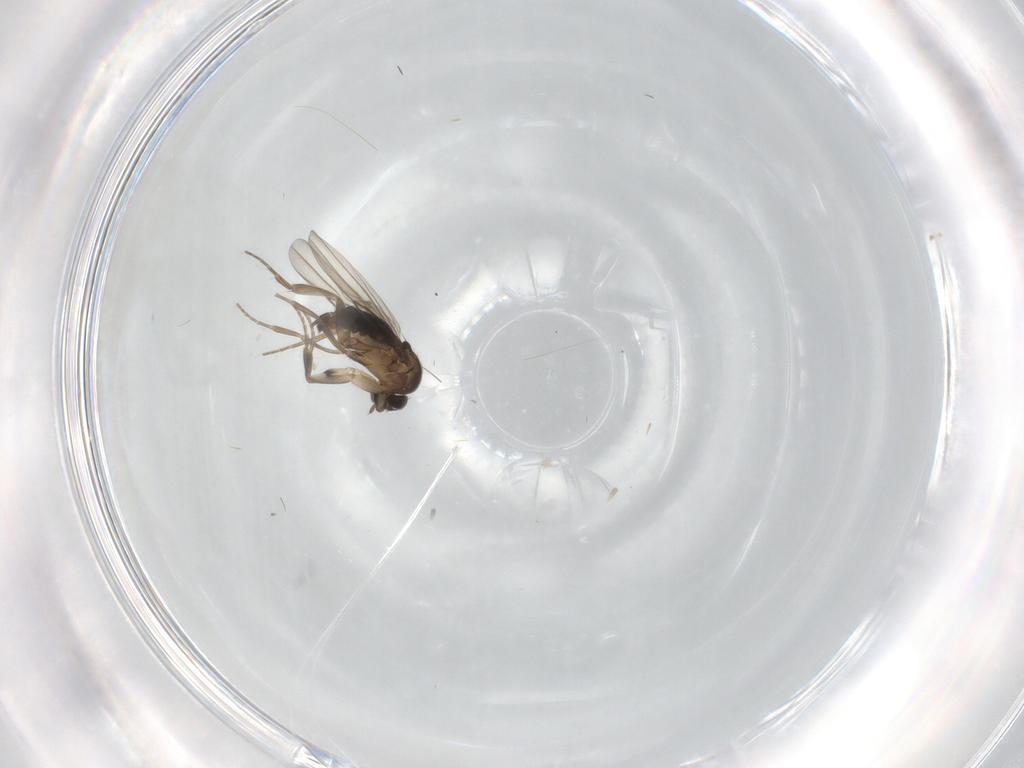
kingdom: Animalia
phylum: Arthropoda
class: Insecta
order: Diptera
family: Phoridae
